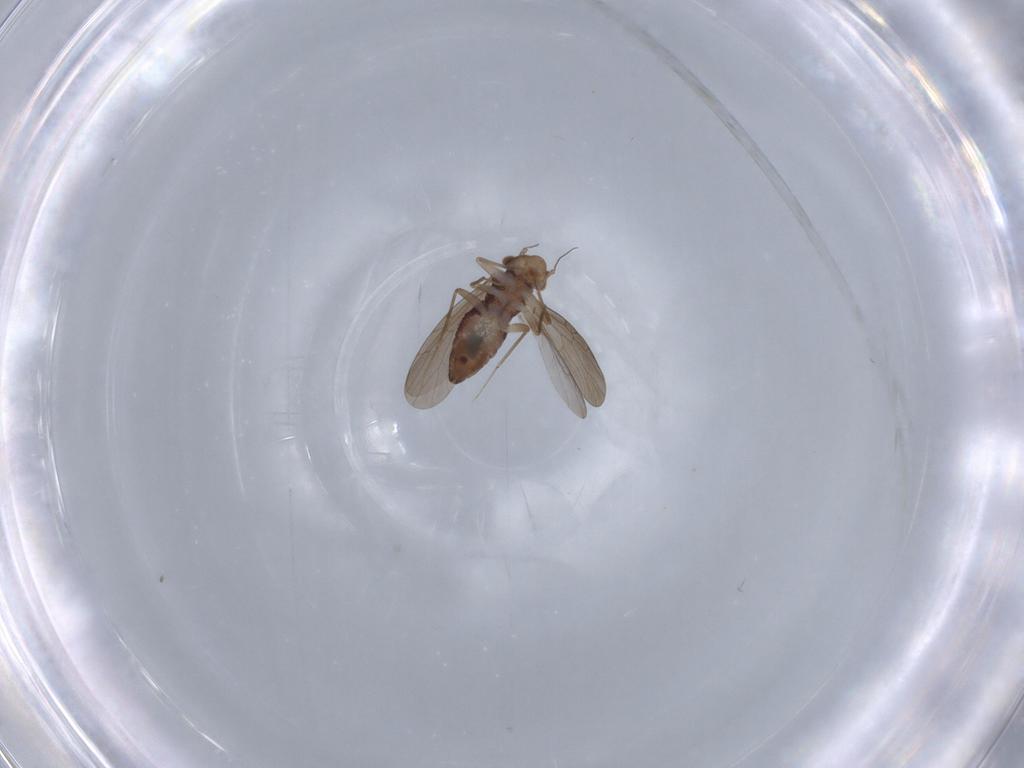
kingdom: Animalia
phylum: Arthropoda
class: Insecta
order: Psocodea
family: Lepidopsocidae
